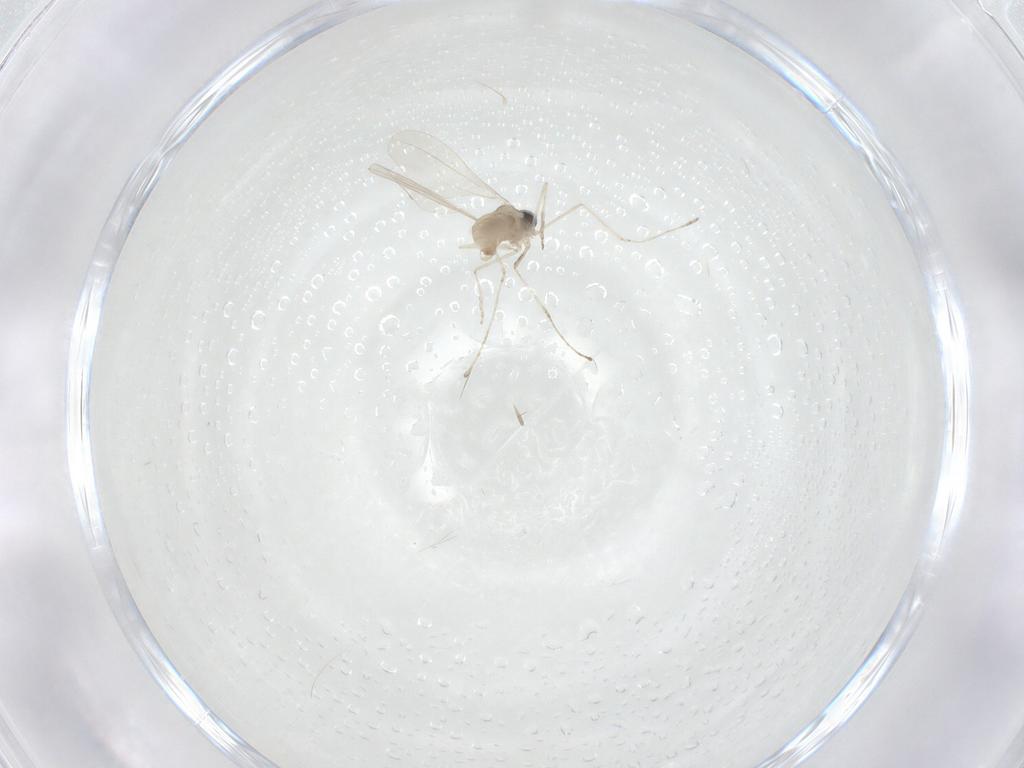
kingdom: Animalia
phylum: Arthropoda
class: Insecta
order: Diptera
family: Cecidomyiidae
